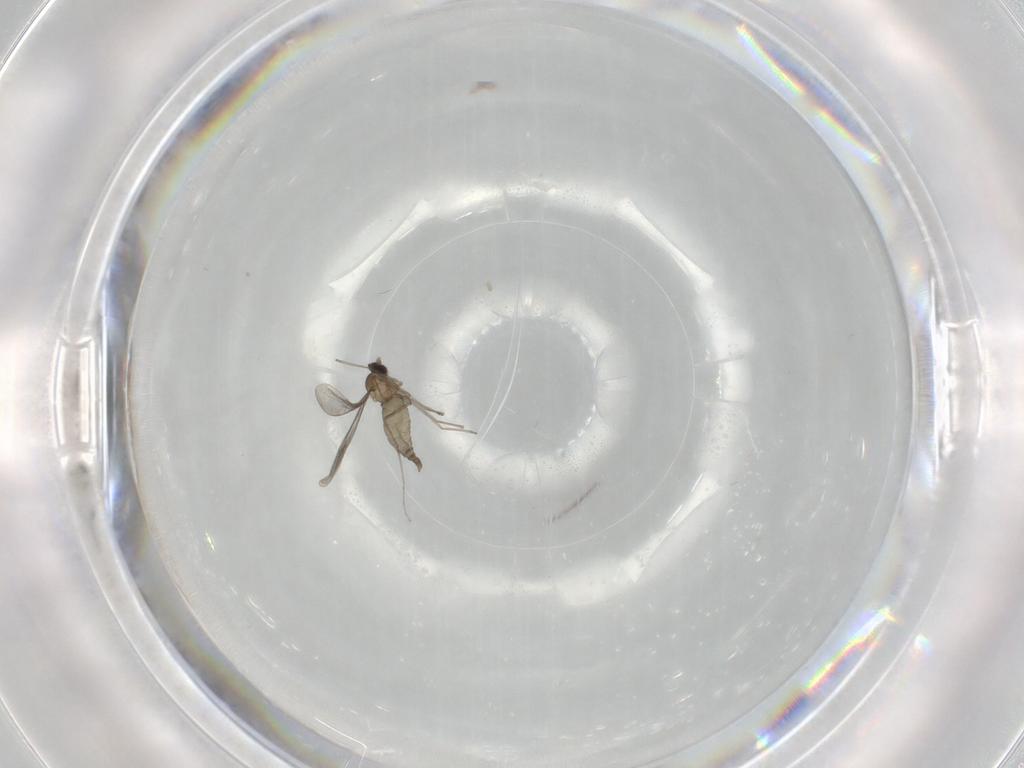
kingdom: Animalia
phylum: Arthropoda
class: Insecta
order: Diptera
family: Cecidomyiidae
